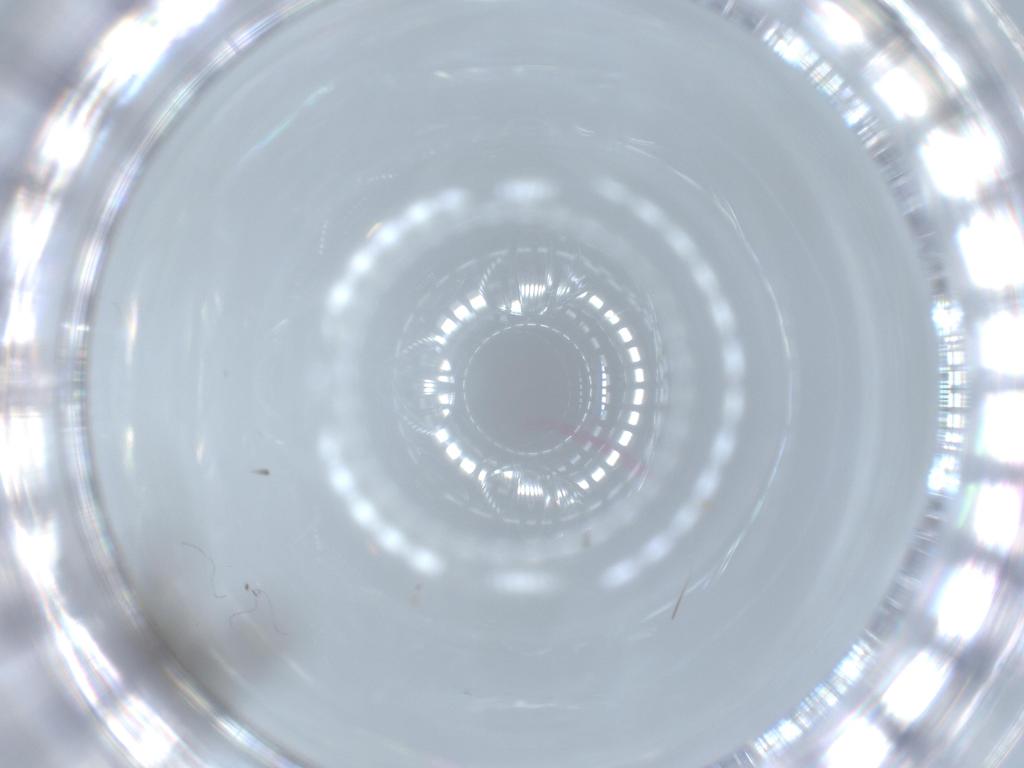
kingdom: Animalia
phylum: Arthropoda
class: Insecta
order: Diptera
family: Sciaridae
